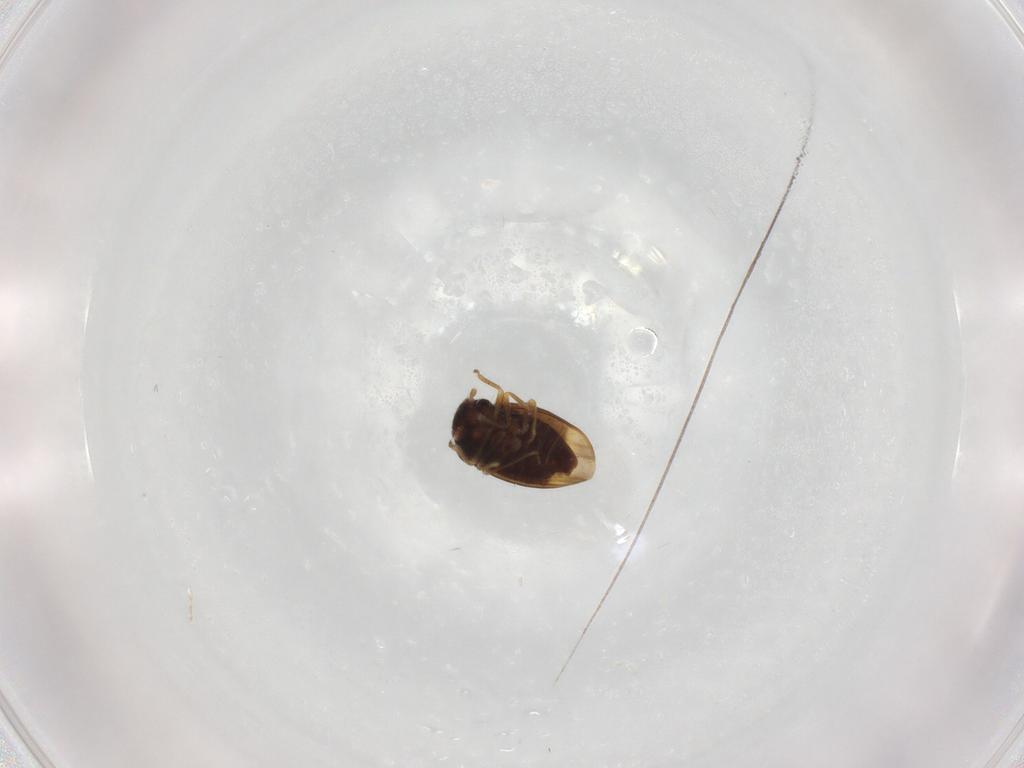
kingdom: Animalia
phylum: Arthropoda
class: Insecta
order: Hemiptera
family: Schizopteridae
